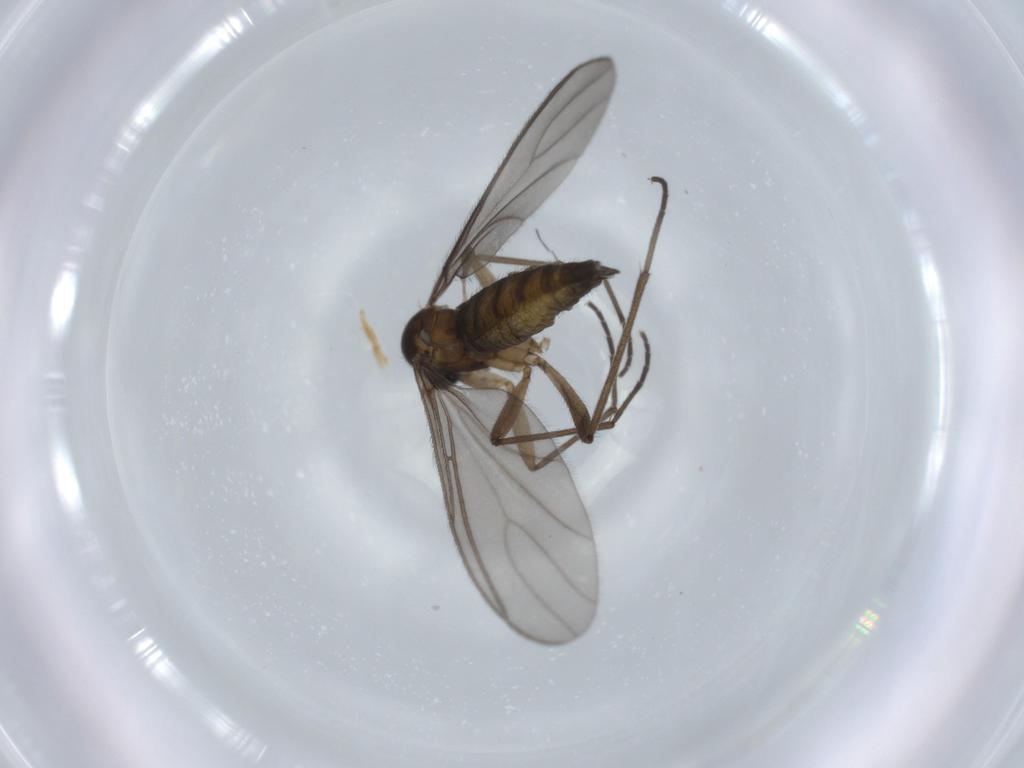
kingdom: Animalia
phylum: Arthropoda
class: Insecta
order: Diptera
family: Sciaridae
